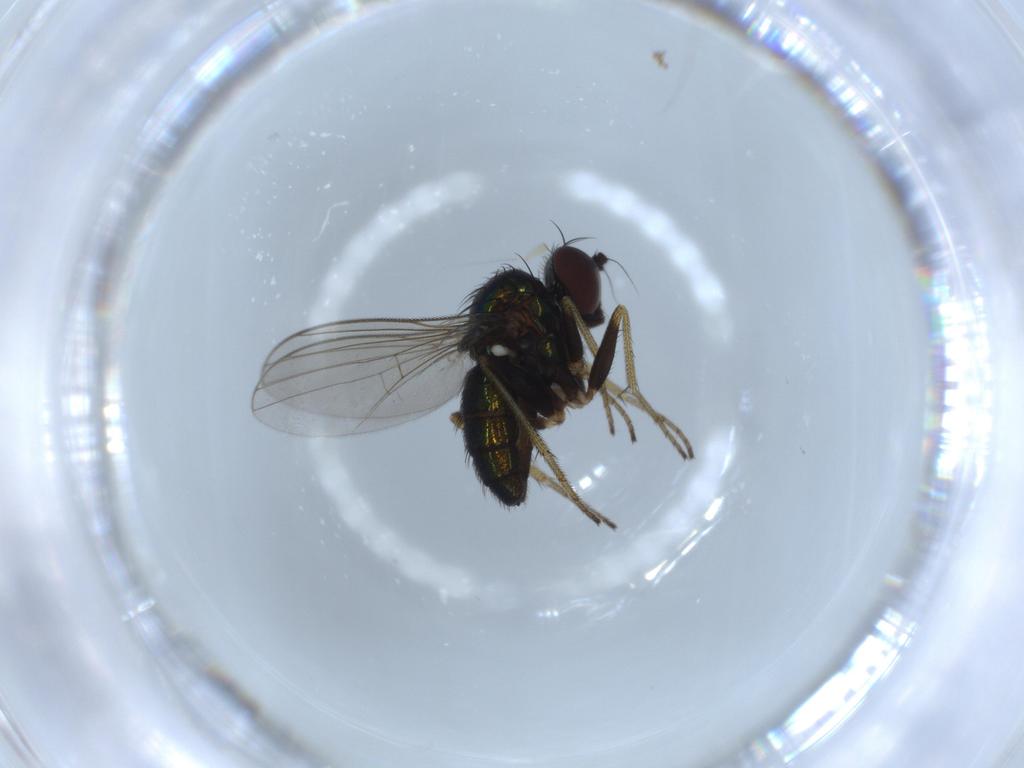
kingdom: Animalia
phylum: Arthropoda
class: Insecta
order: Diptera
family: Dolichopodidae
